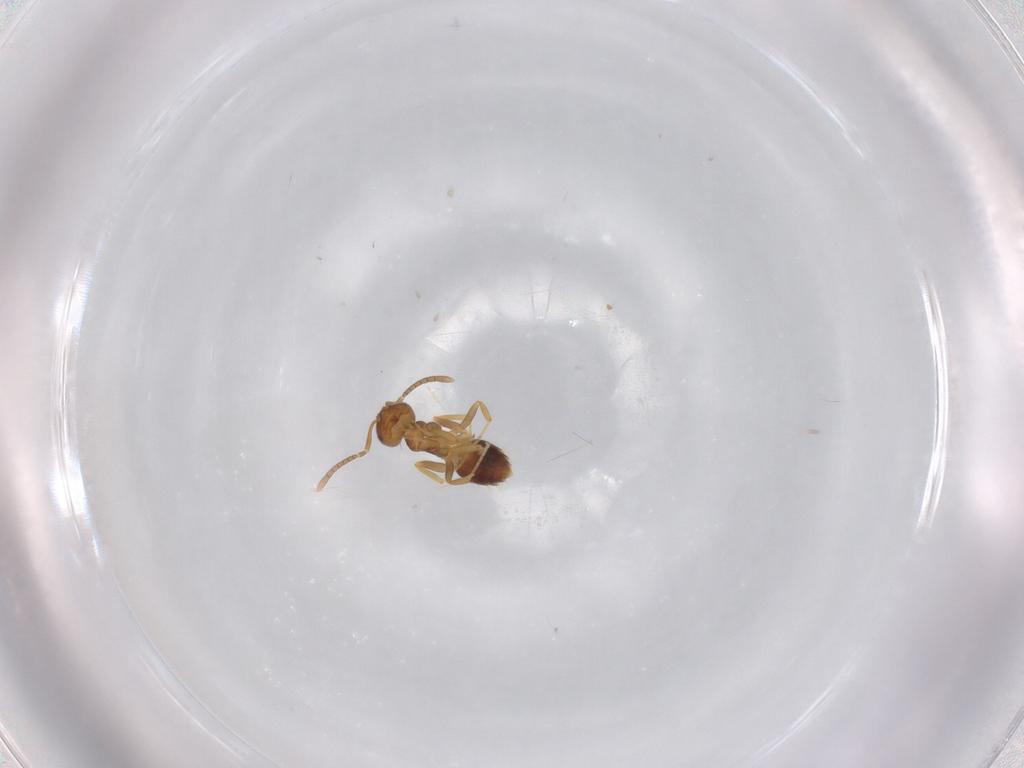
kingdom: Animalia
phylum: Arthropoda
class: Insecta
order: Hymenoptera
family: Formicidae
